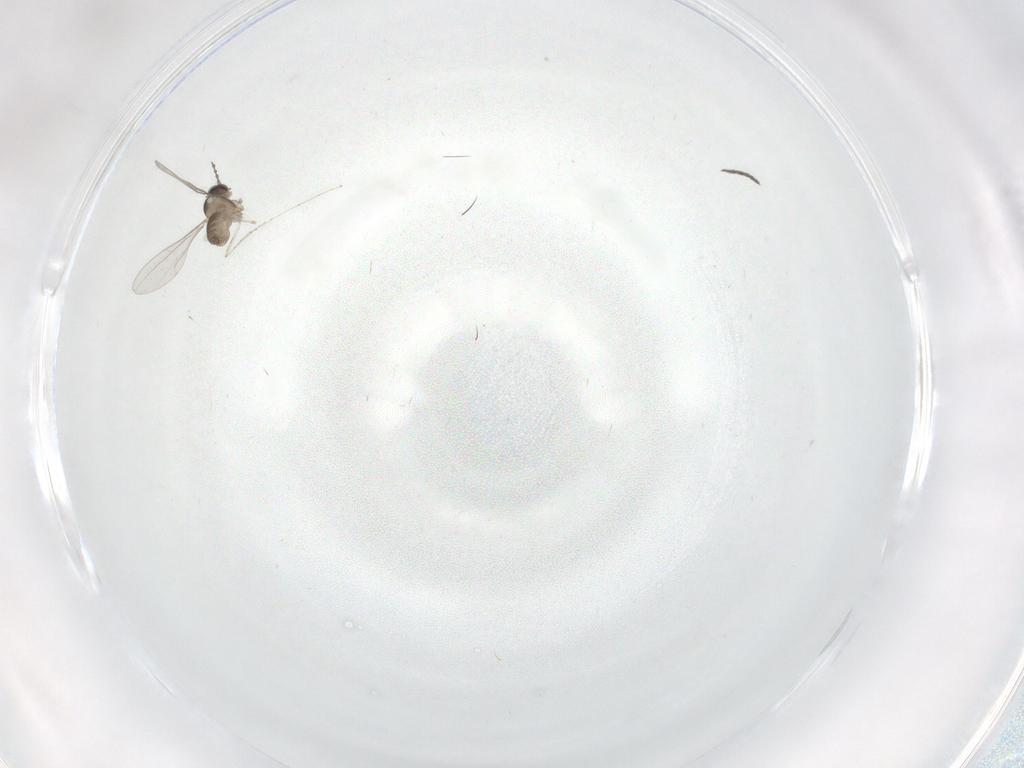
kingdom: Animalia
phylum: Arthropoda
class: Insecta
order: Diptera
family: Cecidomyiidae
